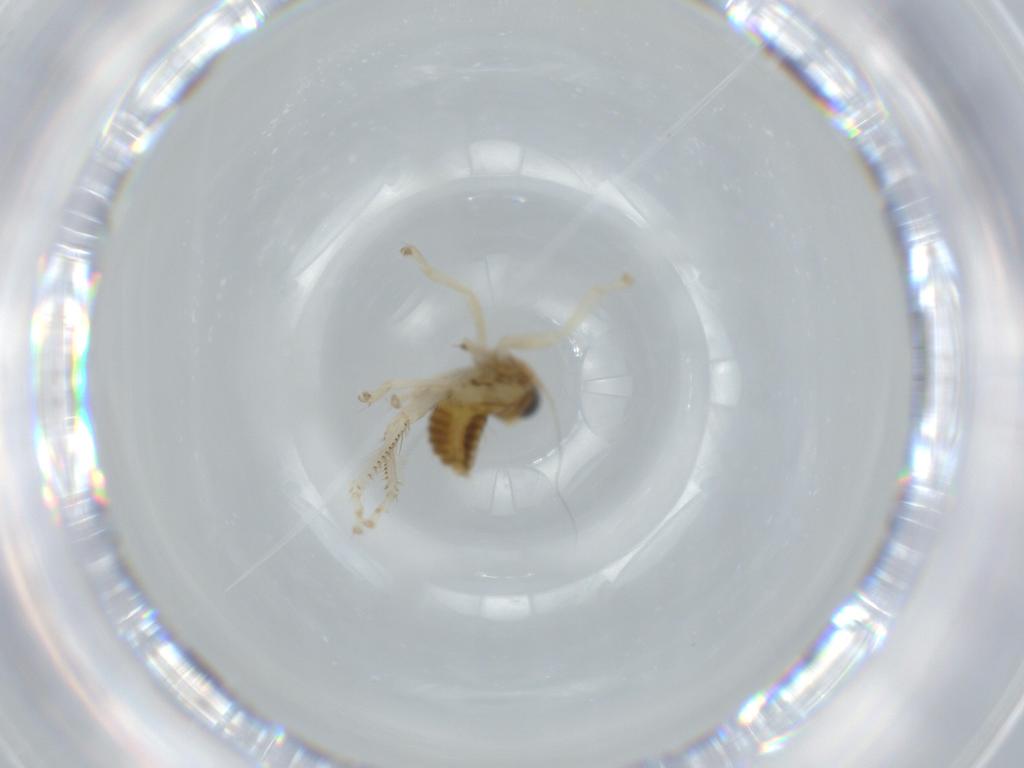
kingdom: Animalia
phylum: Arthropoda
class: Insecta
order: Hemiptera
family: Cicadellidae
